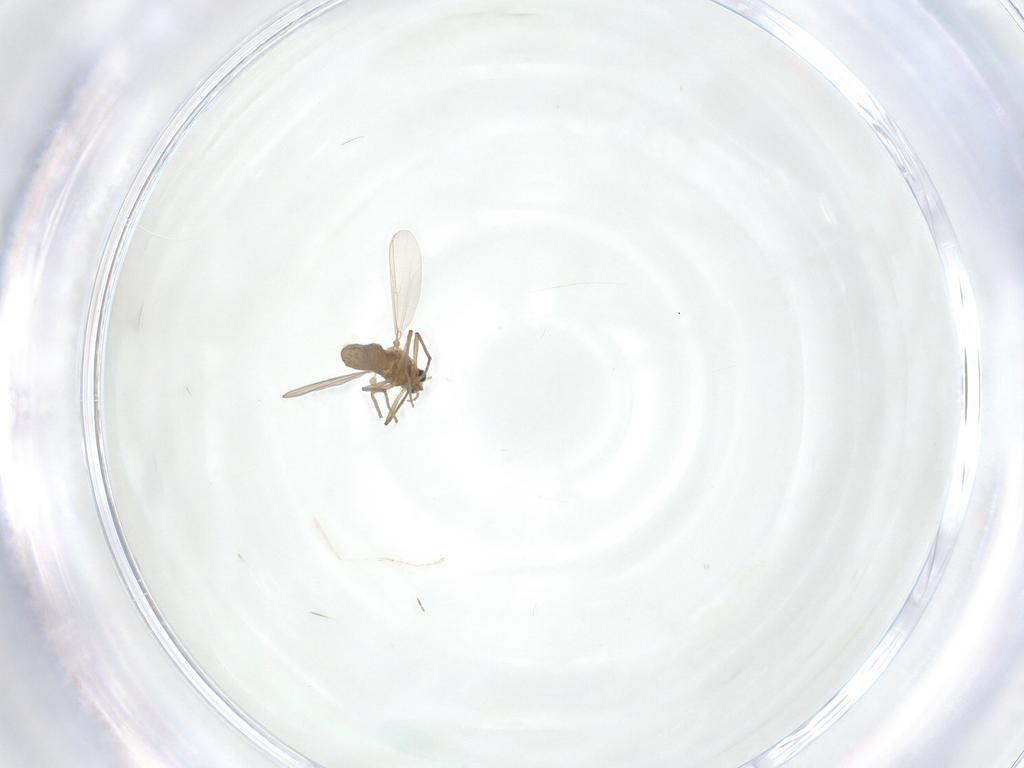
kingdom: Animalia
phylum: Arthropoda
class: Insecta
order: Diptera
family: Chironomidae
